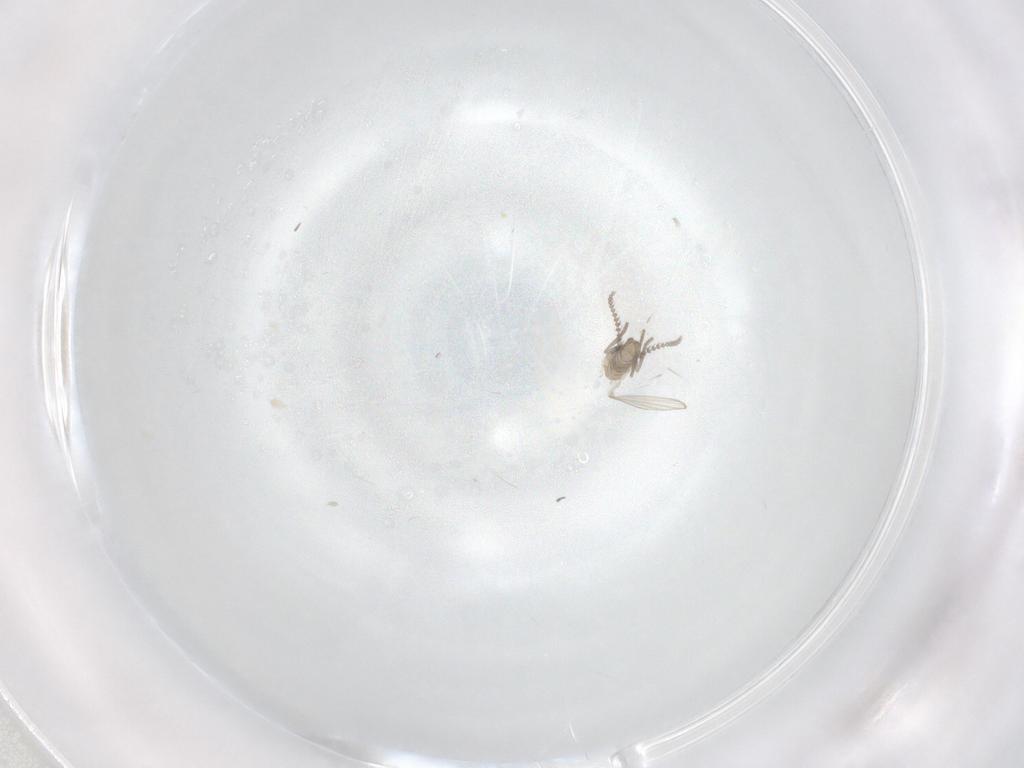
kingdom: Animalia
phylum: Arthropoda
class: Insecta
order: Diptera
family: Psychodidae
